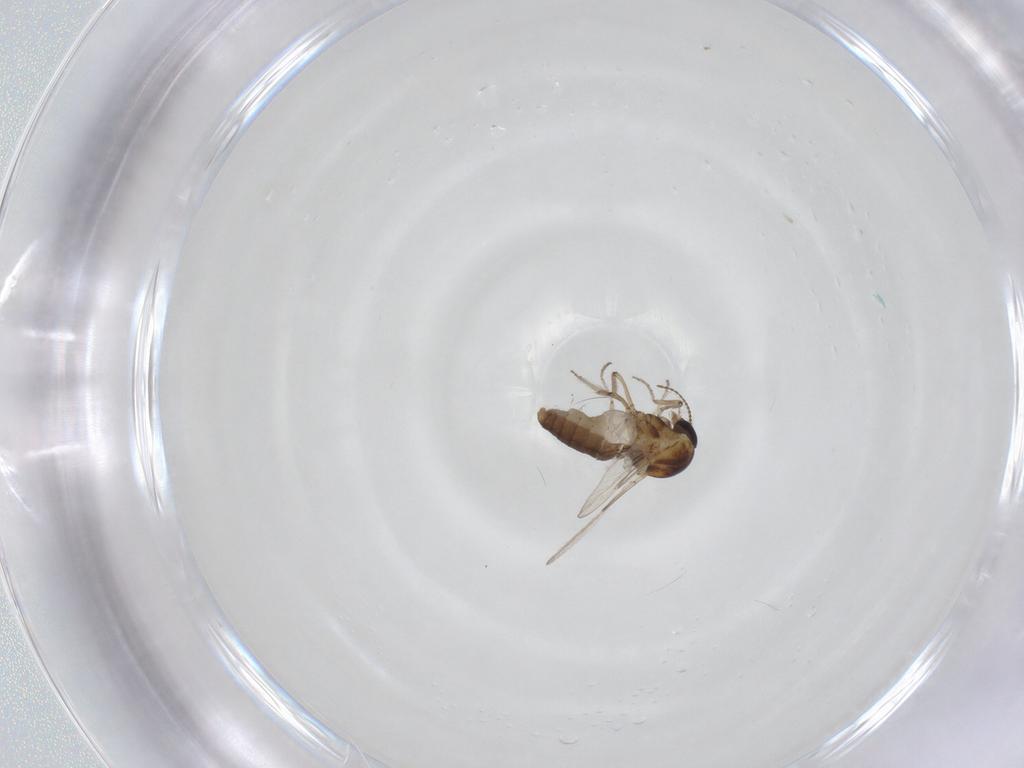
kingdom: Animalia
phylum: Arthropoda
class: Insecta
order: Diptera
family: Ceratopogonidae
